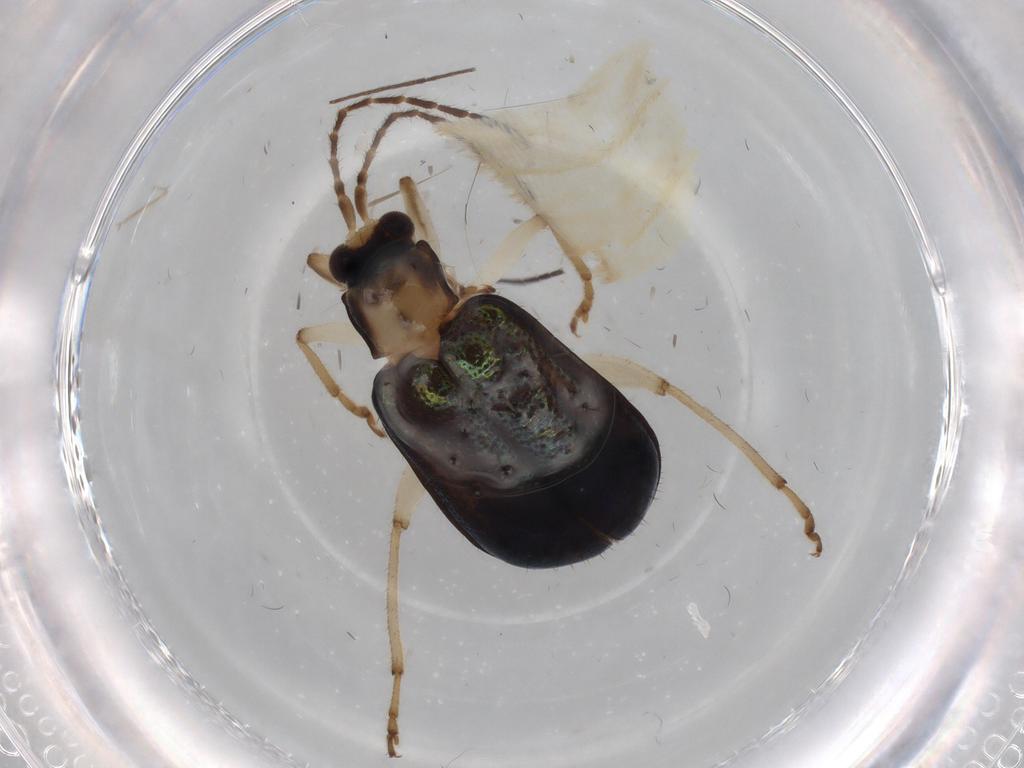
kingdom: Animalia
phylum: Arthropoda
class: Insecta
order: Coleoptera
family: Chrysomelidae
